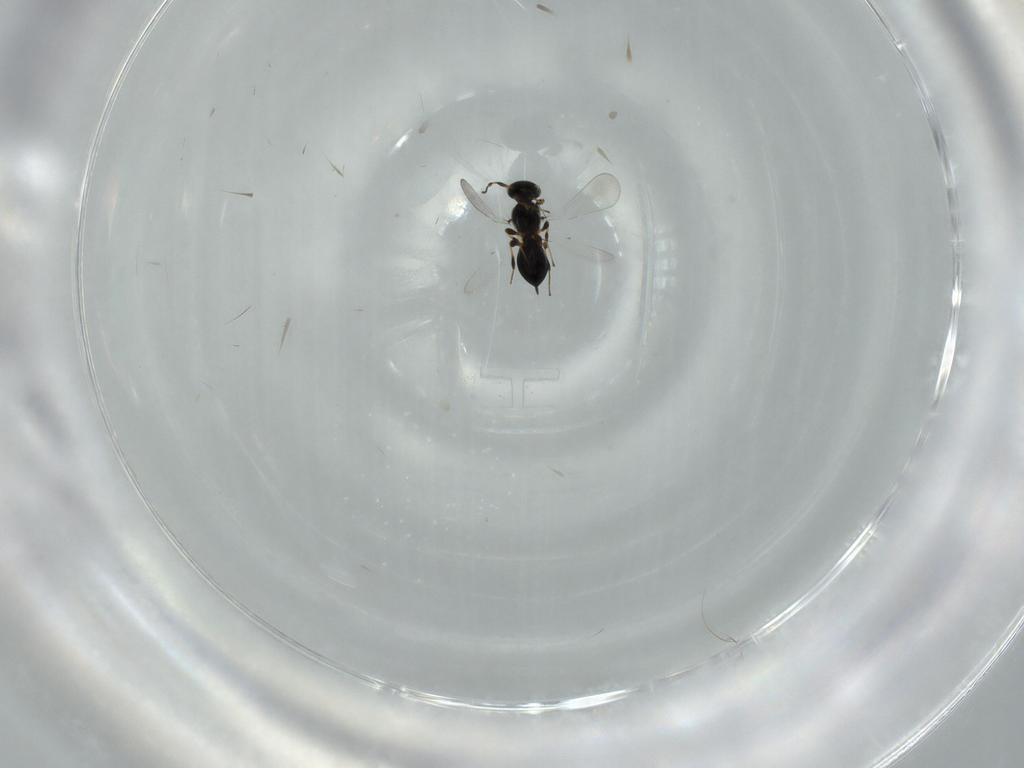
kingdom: Animalia
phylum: Arthropoda
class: Insecta
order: Hymenoptera
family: Platygastridae
